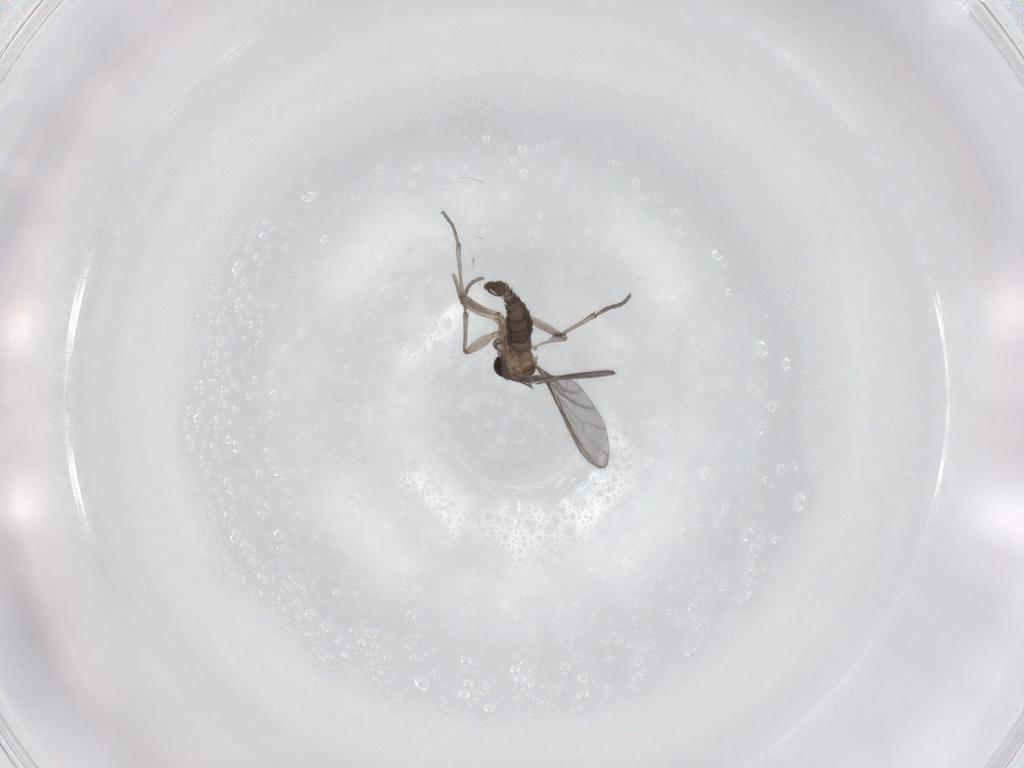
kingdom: Animalia
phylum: Arthropoda
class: Insecta
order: Diptera
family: Sciaridae
